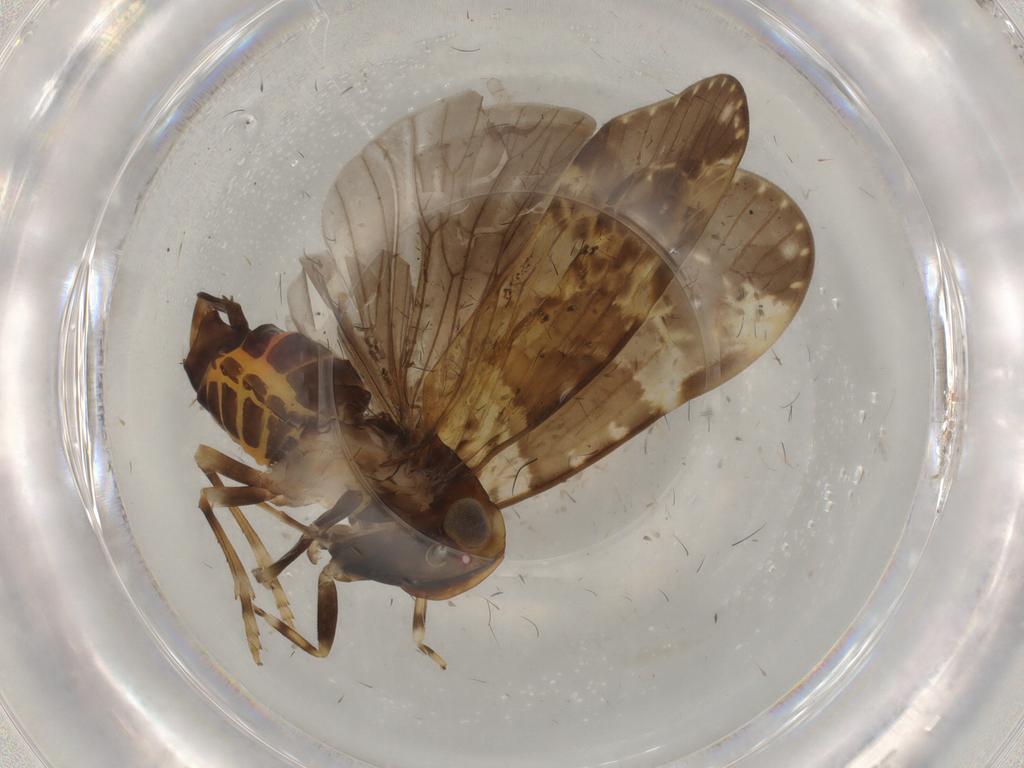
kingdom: Animalia
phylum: Arthropoda
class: Insecta
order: Hemiptera
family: Cixiidae
